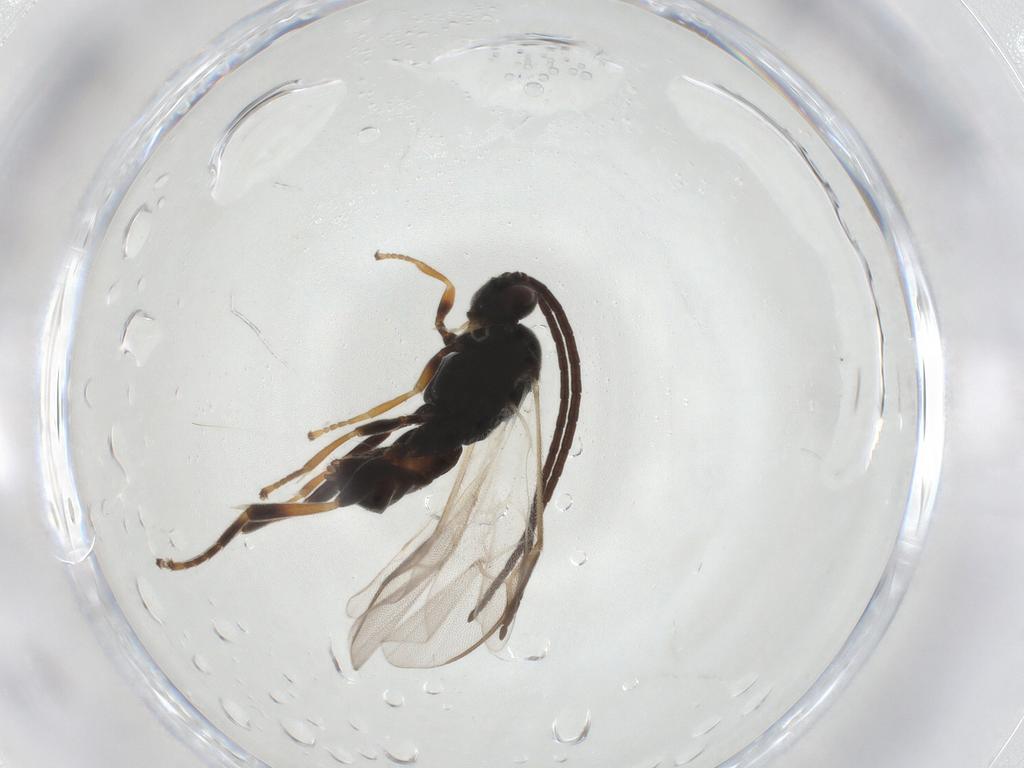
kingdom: Animalia
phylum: Arthropoda
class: Insecta
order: Hymenoptera
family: Braconidae
